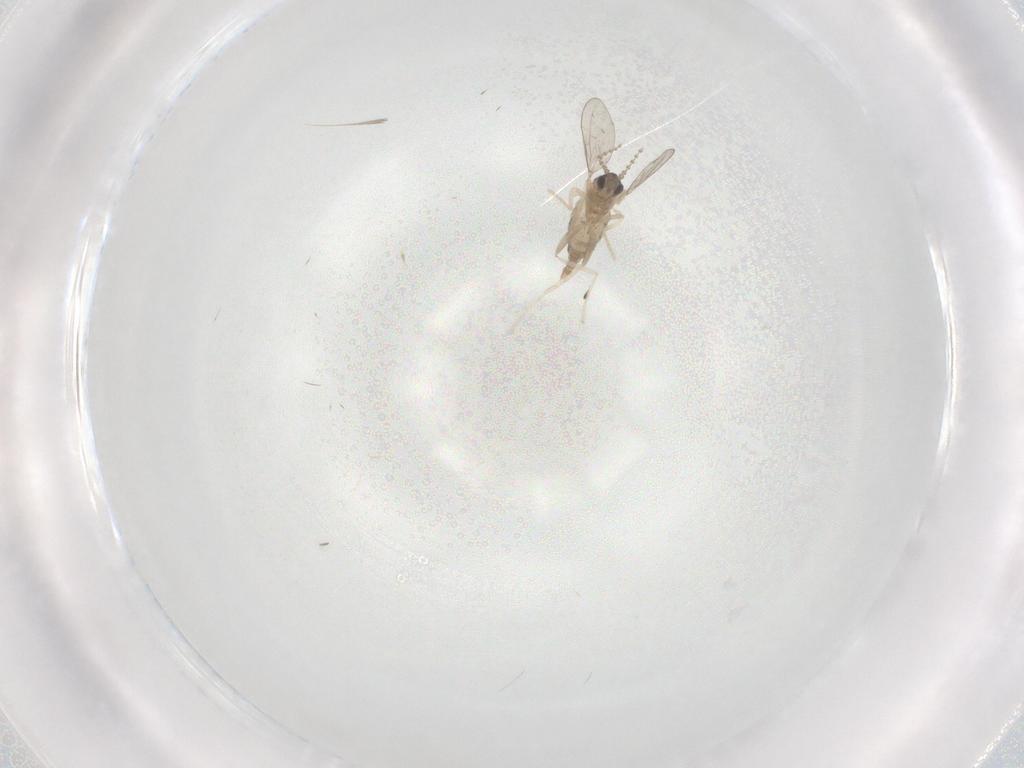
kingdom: Animalia
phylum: Arthropoda
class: Insecta
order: Diptera
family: Cecidomyiidae
